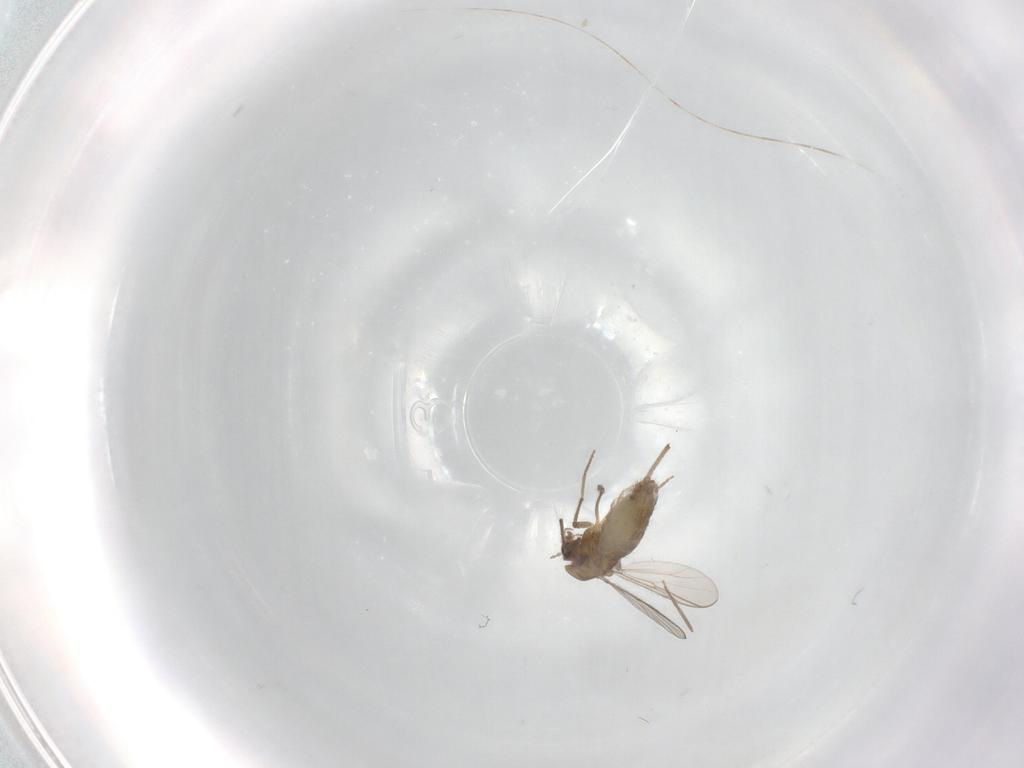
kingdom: Animalia
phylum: Arthropoda
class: Insecta
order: Diptera
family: Chironomidae
